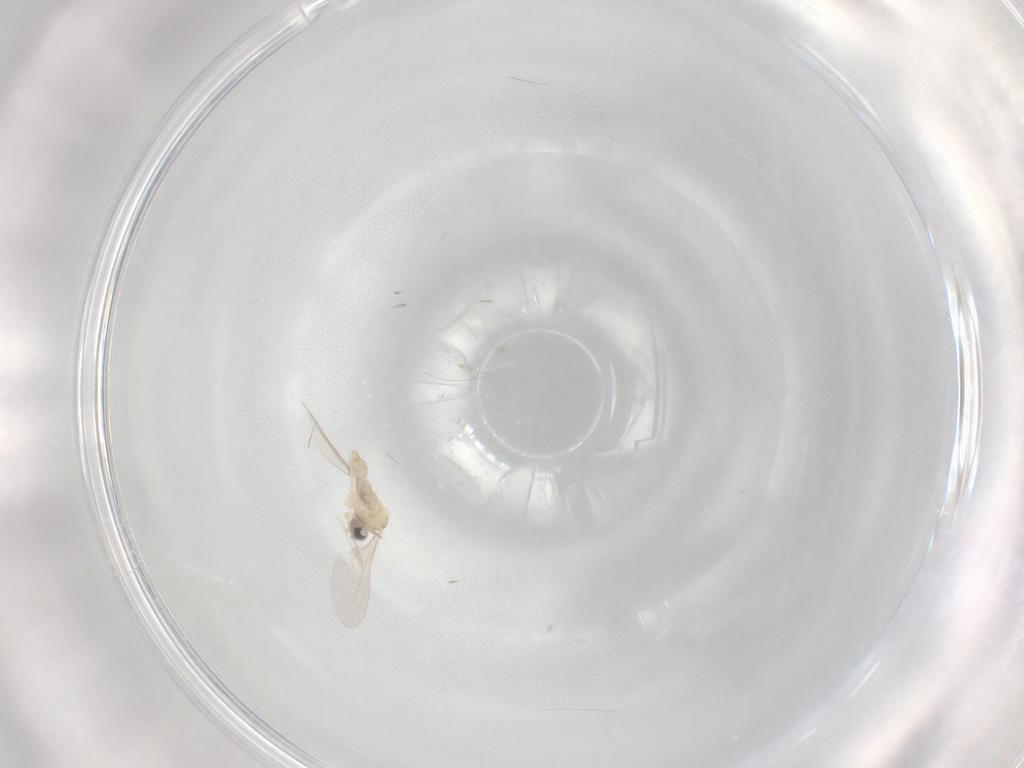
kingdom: Animalia
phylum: Arthropoda
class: Insecta
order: Diptera
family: Cecidomyiidae
